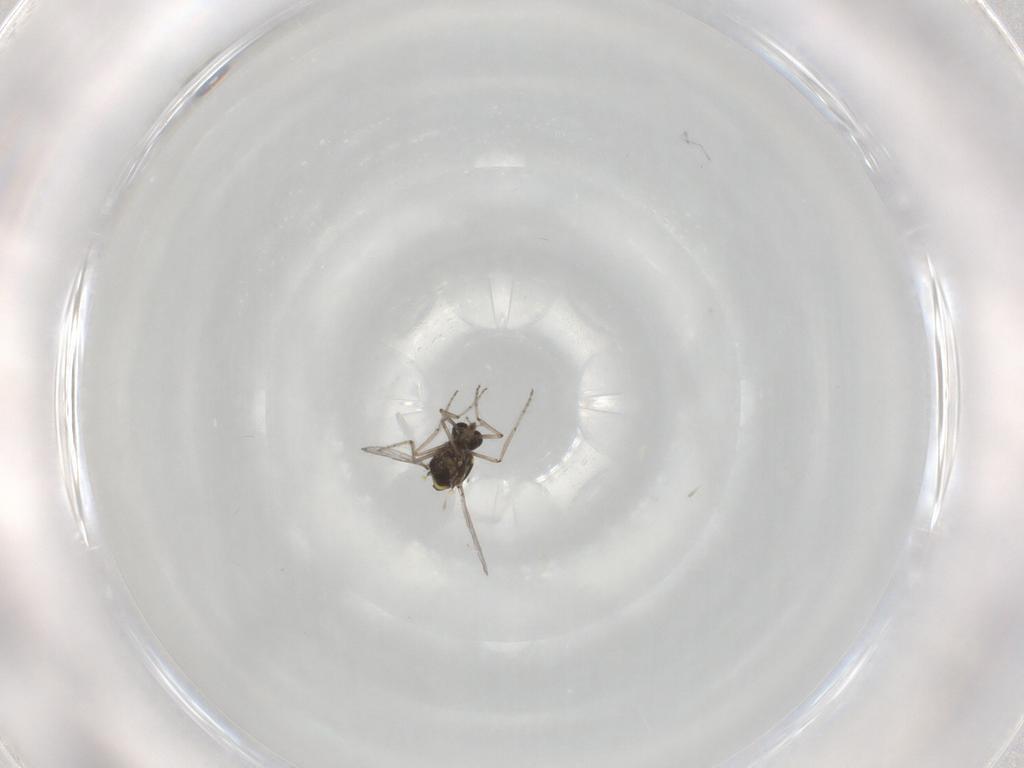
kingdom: Animalia
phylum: Arthropoda
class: Insecta
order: Diptera
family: Ceratopogonidae
